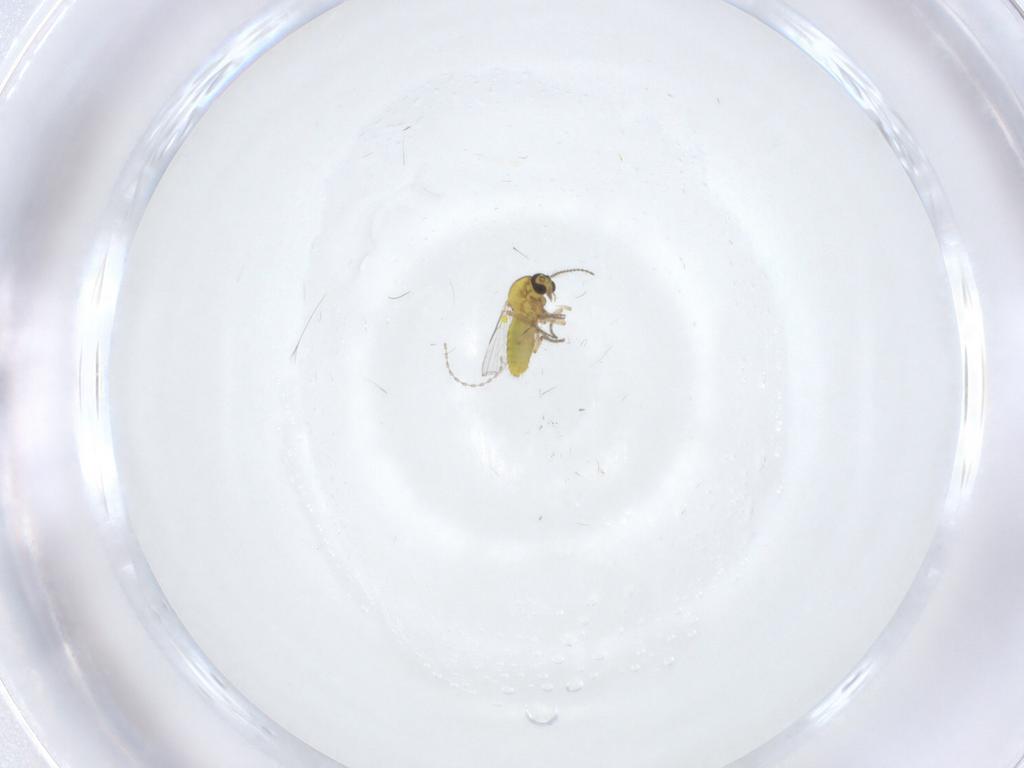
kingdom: Animalia
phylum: Arthropoda
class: Insecta
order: Diptera
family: Ceratopogonidae
